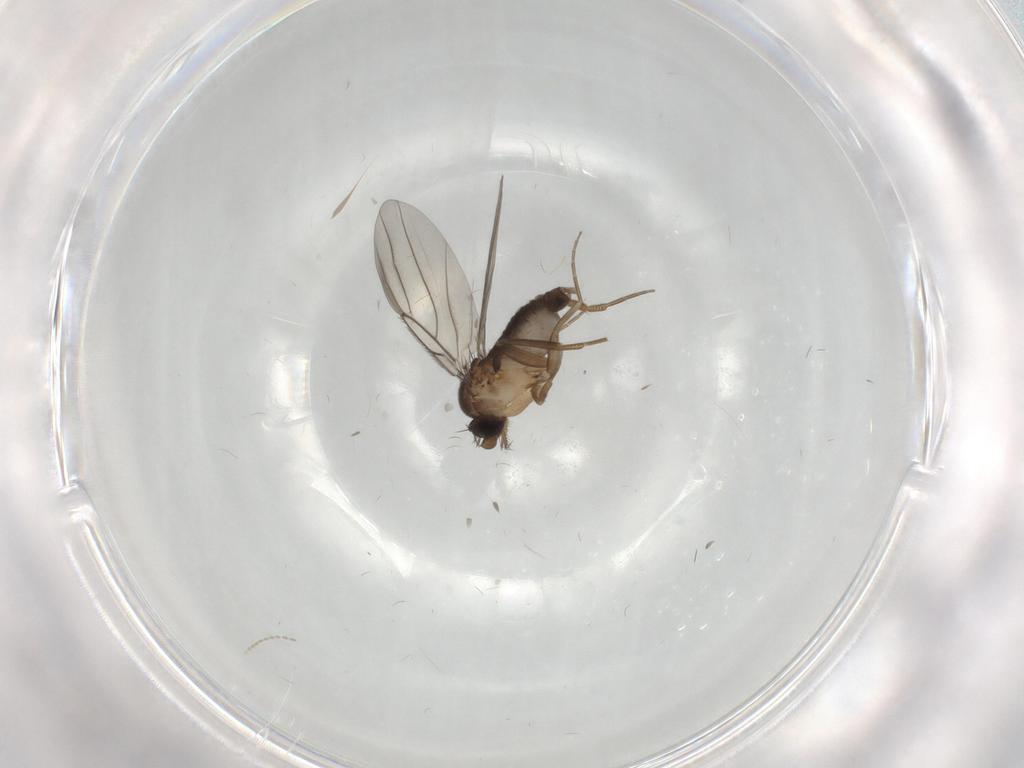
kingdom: Animalia
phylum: Arthropoda
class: Insecta
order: Diptera
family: Phoridae
